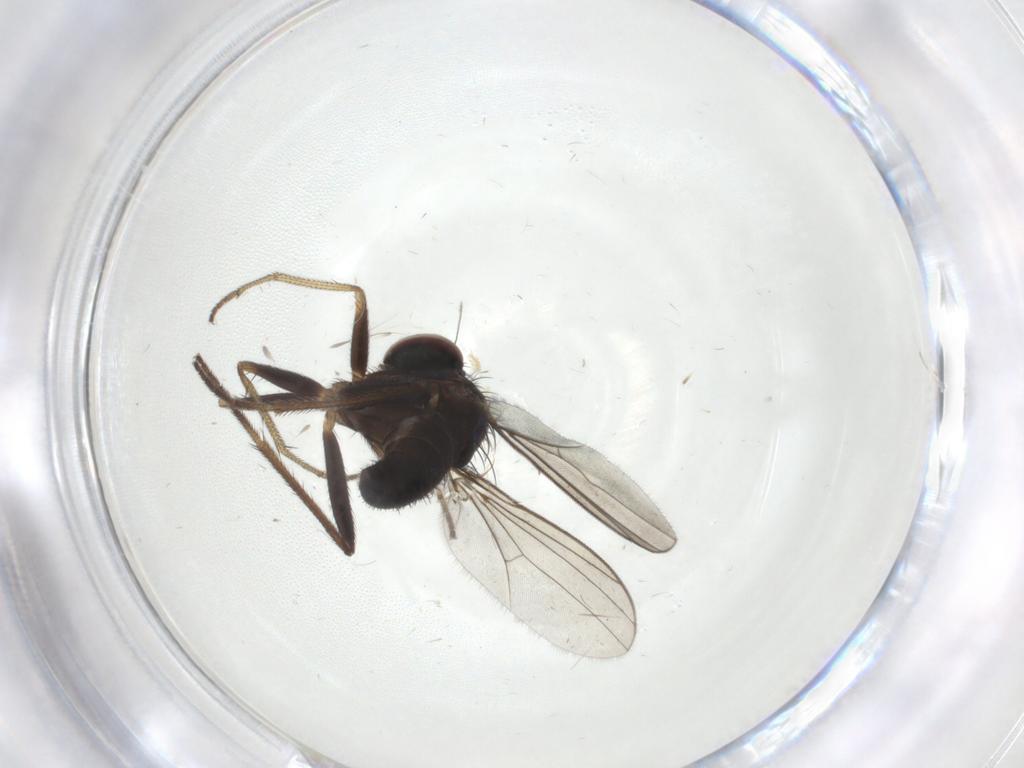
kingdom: Animalia
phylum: Arthropoda
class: Insecta
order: Diptera
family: Dolichopodidae
